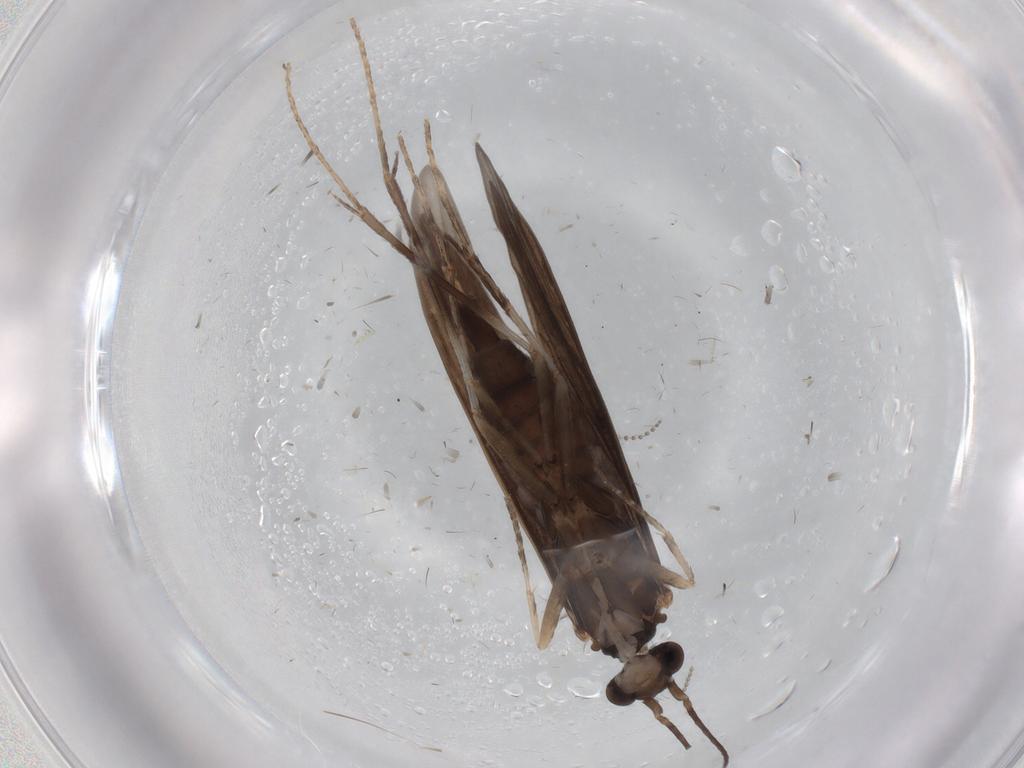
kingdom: Animalia
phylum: Arthropoda
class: Insecta
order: Trichoptera
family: Xiphocentronidae
